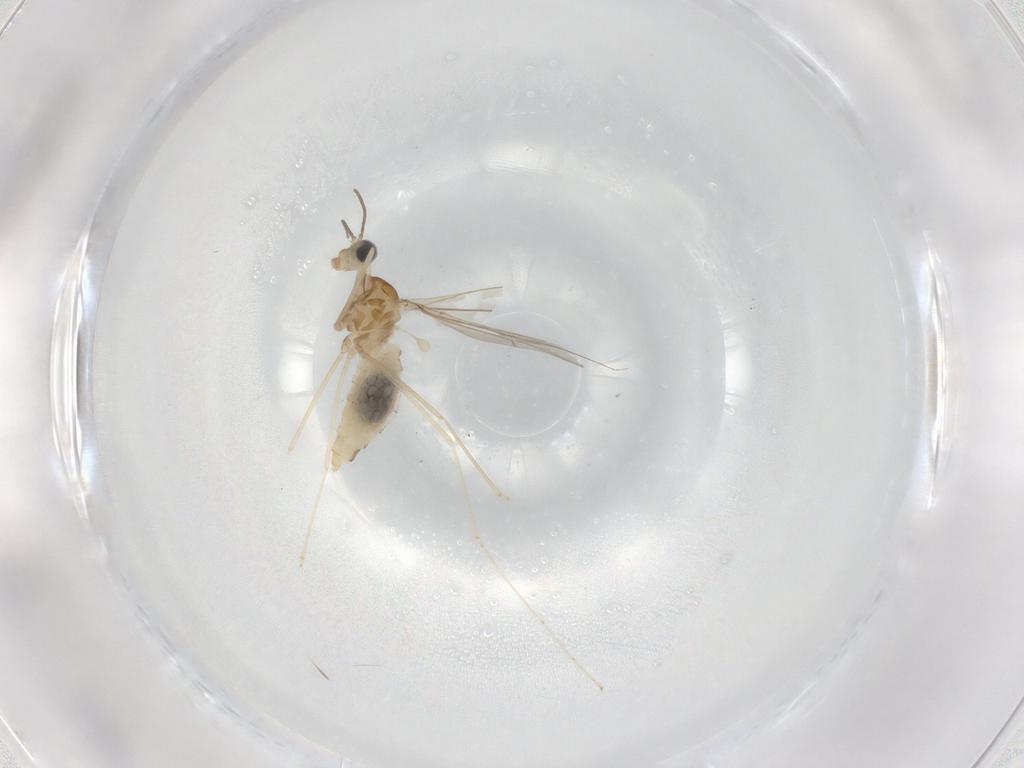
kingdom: Animalia
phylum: Arthropoda
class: Insecta
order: Diptera
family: Cecidomyiidae
